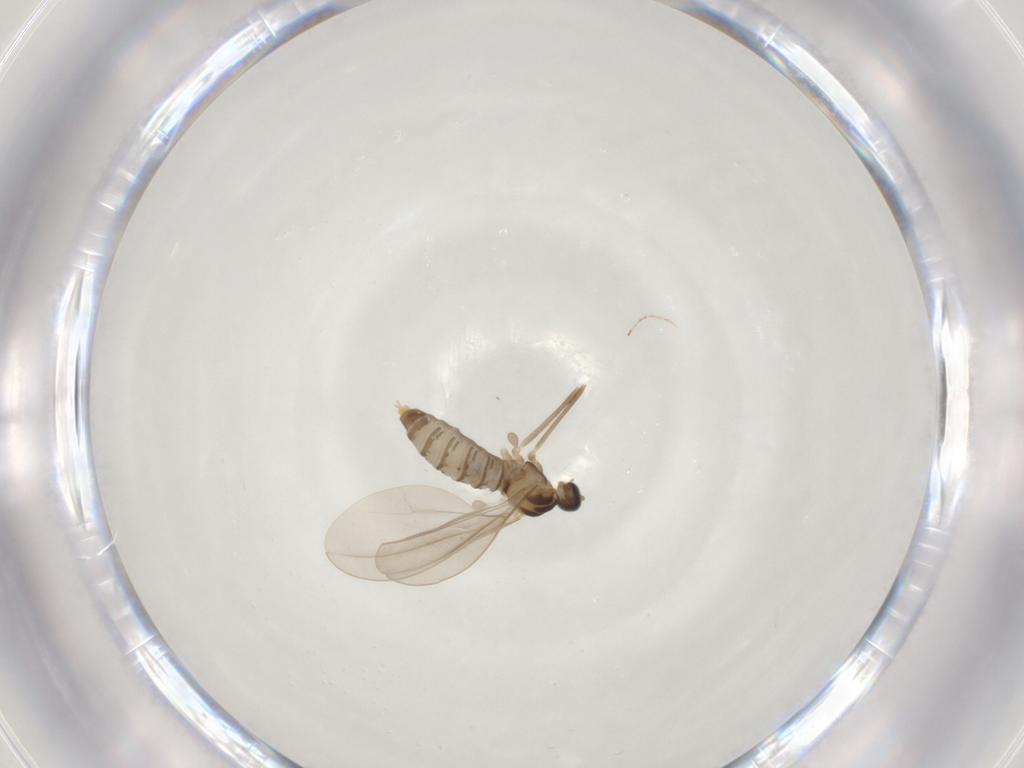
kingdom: Animalia
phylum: Arthropoda
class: Insecta
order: Diptera
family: Cecidomyiidae
